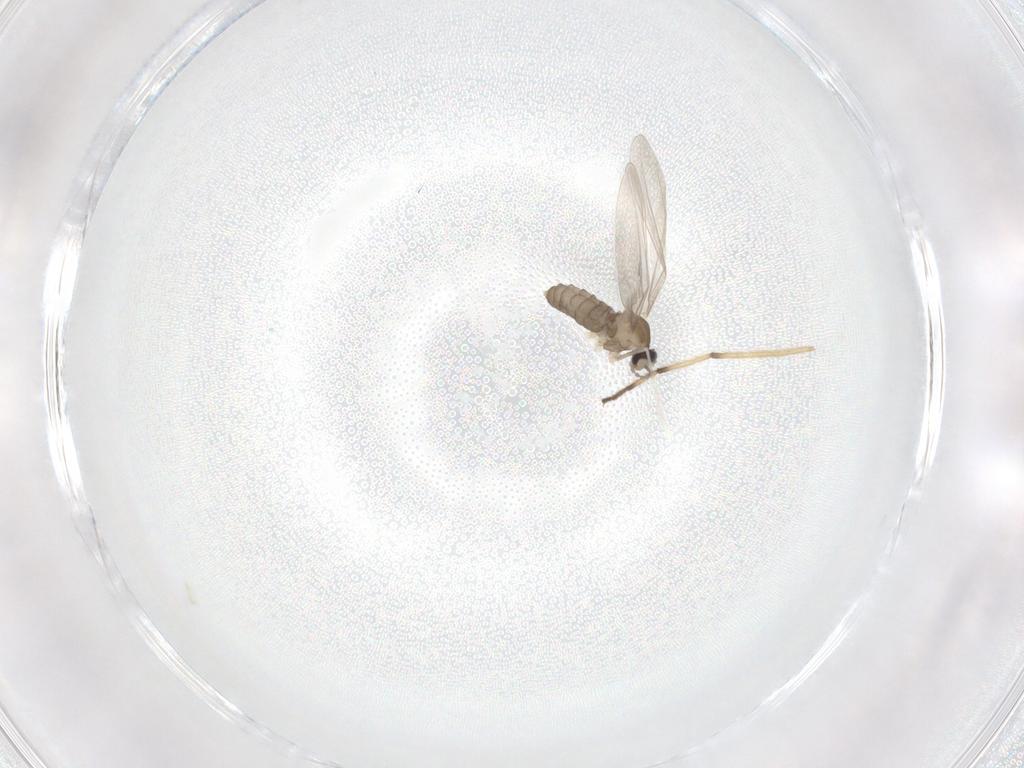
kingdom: Animalia
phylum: Arthropoda
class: Insecta
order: Diptera
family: Cecidomyiidae
